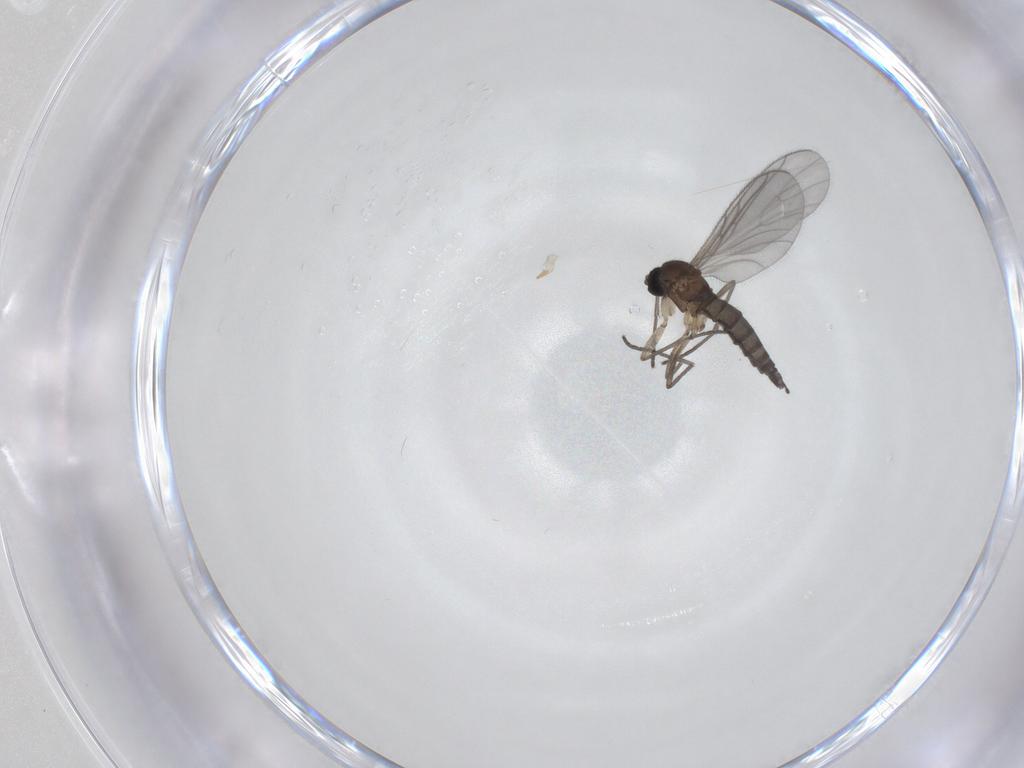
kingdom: Animalia
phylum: Arthropoda
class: Insecta
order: Diptera
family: Sciaridae
